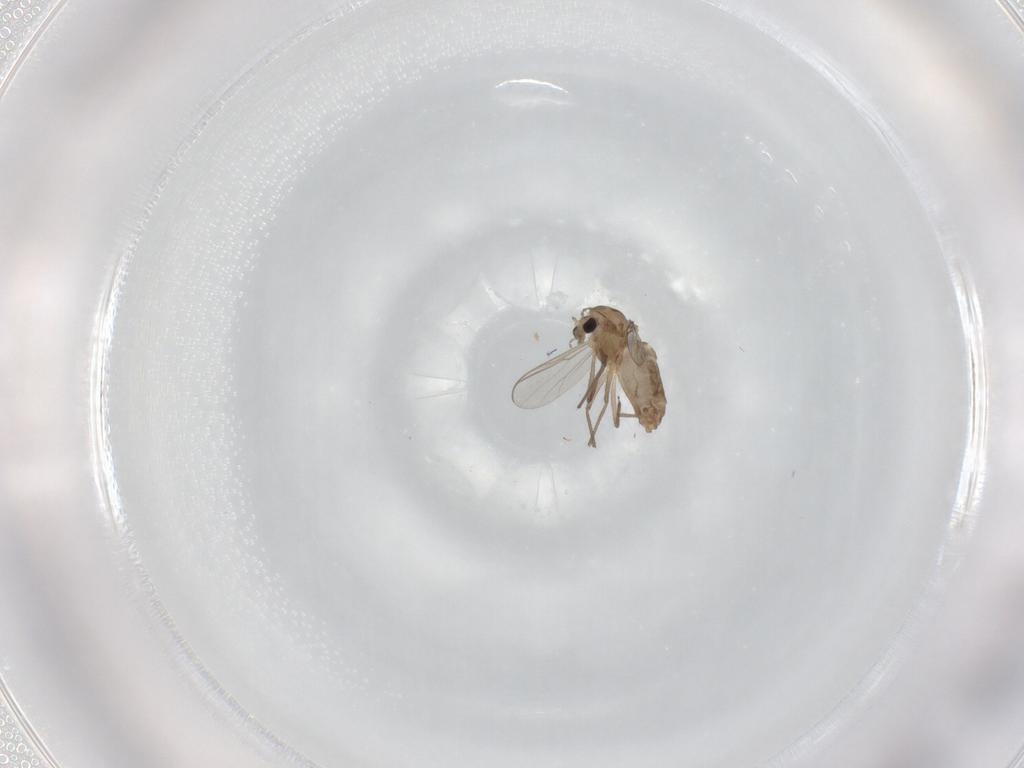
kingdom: Animalia
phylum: Arthropoda
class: Insecta
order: Diptera
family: Chironomidae
